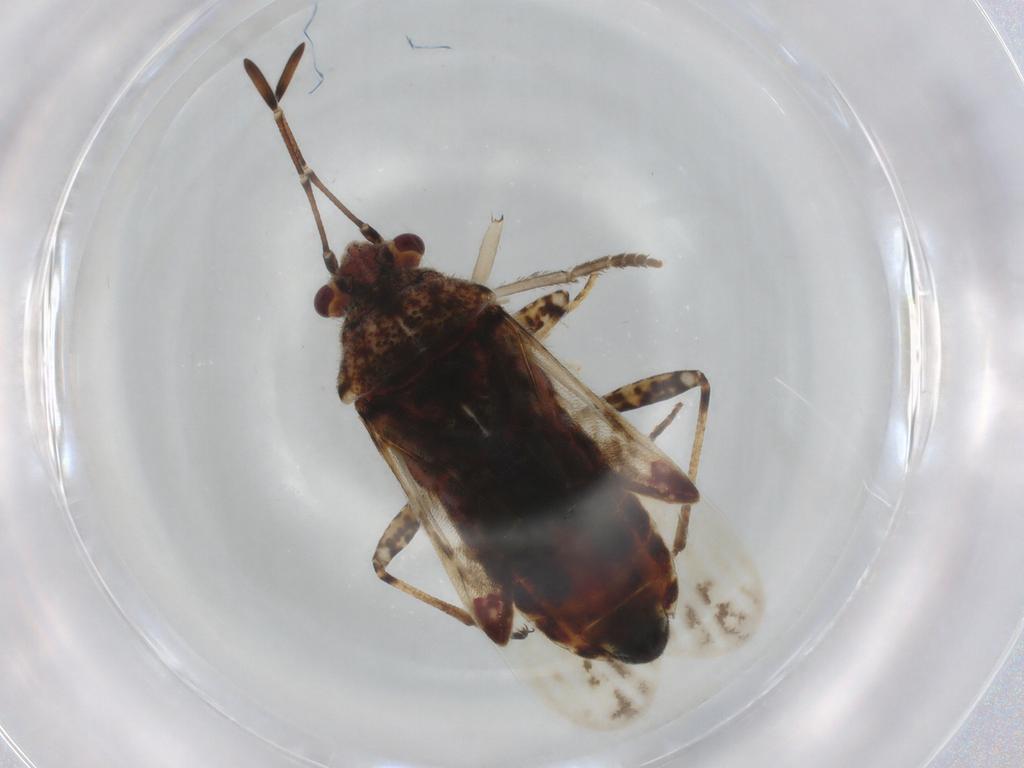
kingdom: Animalia
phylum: Arthropoda
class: Insecta
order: Hemiptera
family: Lygaeidae
